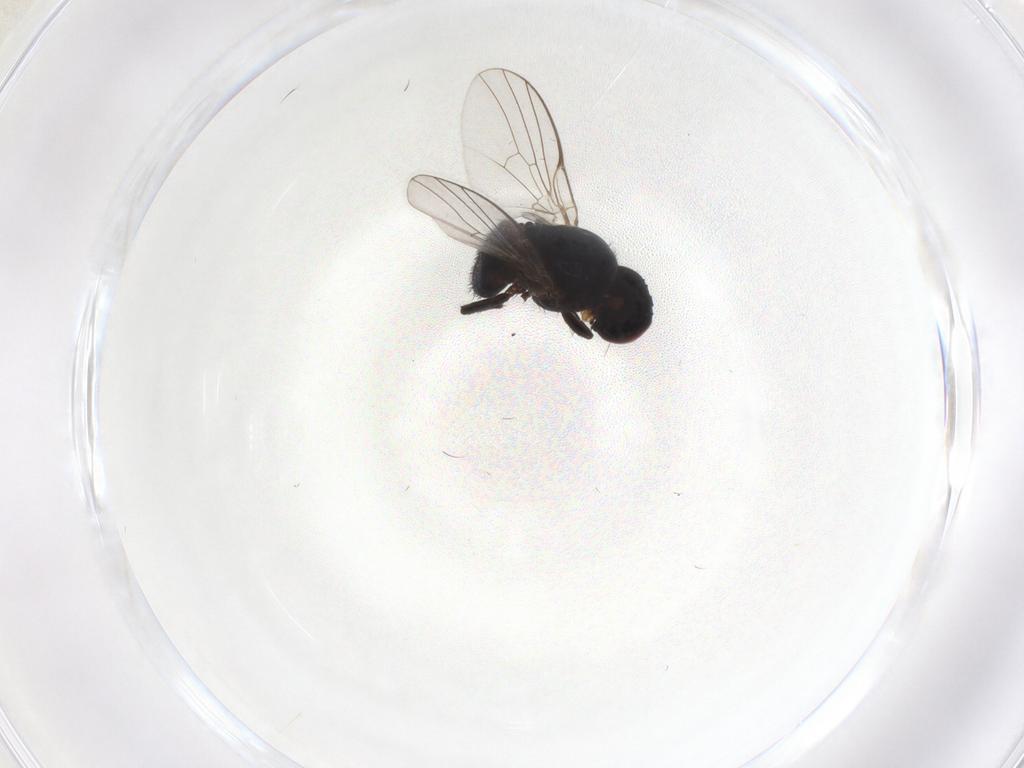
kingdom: Animalia
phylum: Arthropoda
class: Insecta
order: Diptera
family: Agromyzidae
